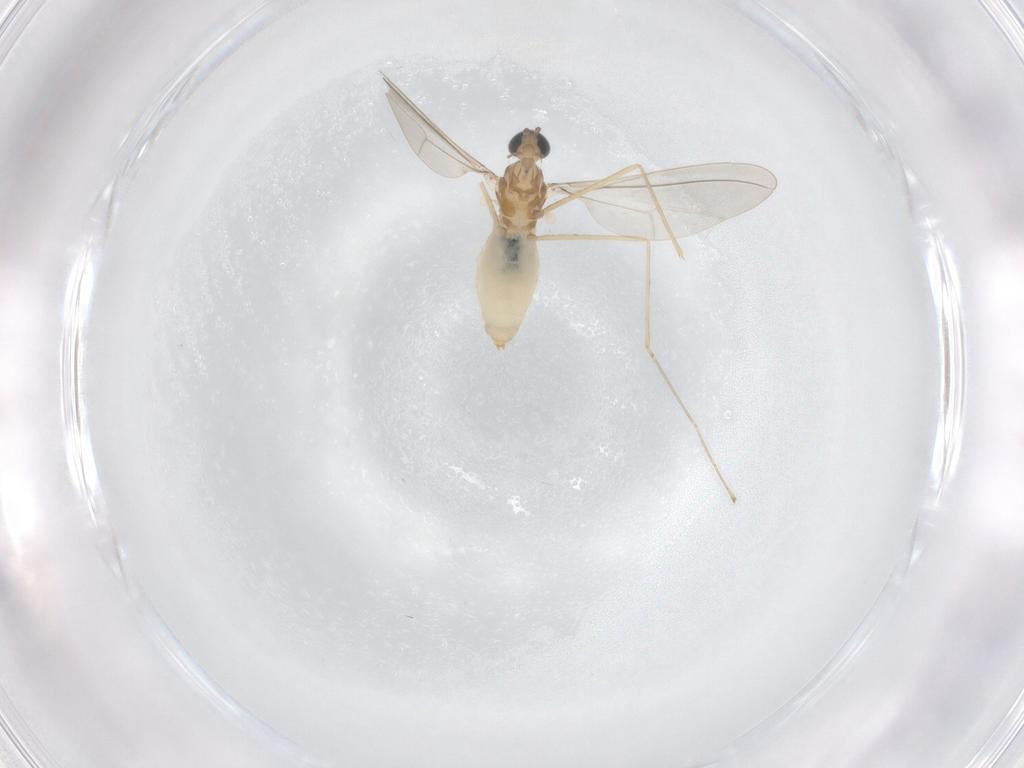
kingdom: Animalia
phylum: Arthropoda
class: Insecta
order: Diptera
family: Cecidomyiidae
